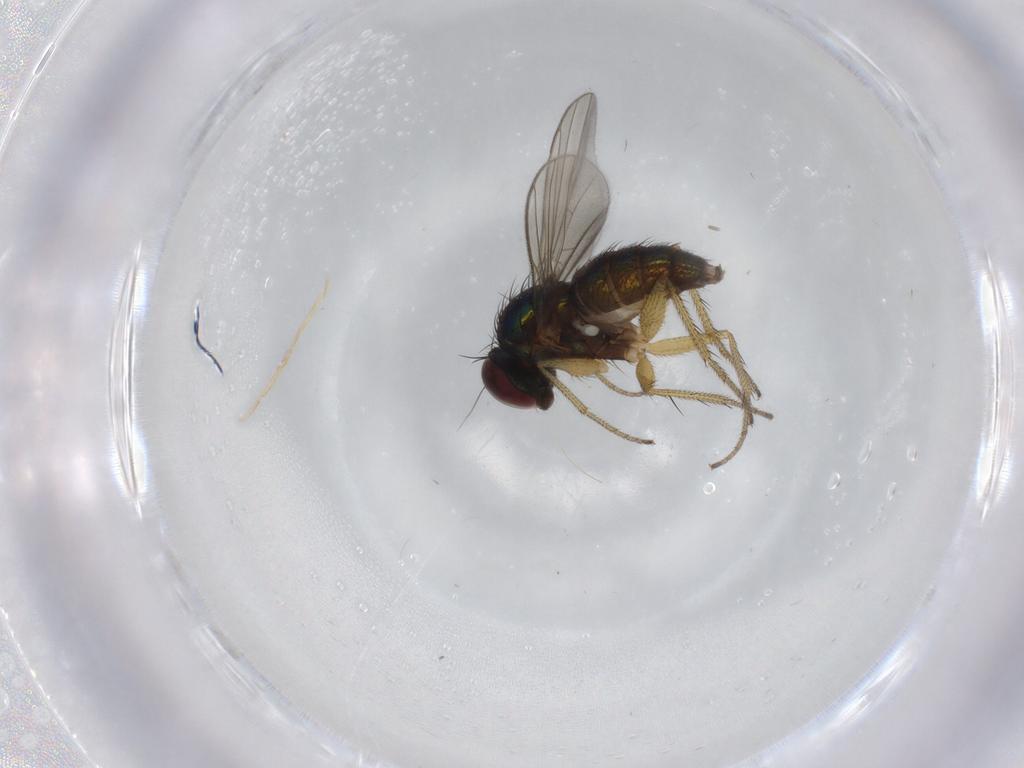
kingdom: Animalia
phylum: Arthropoda
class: Insecta
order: Diptera
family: Dolichopodidae
